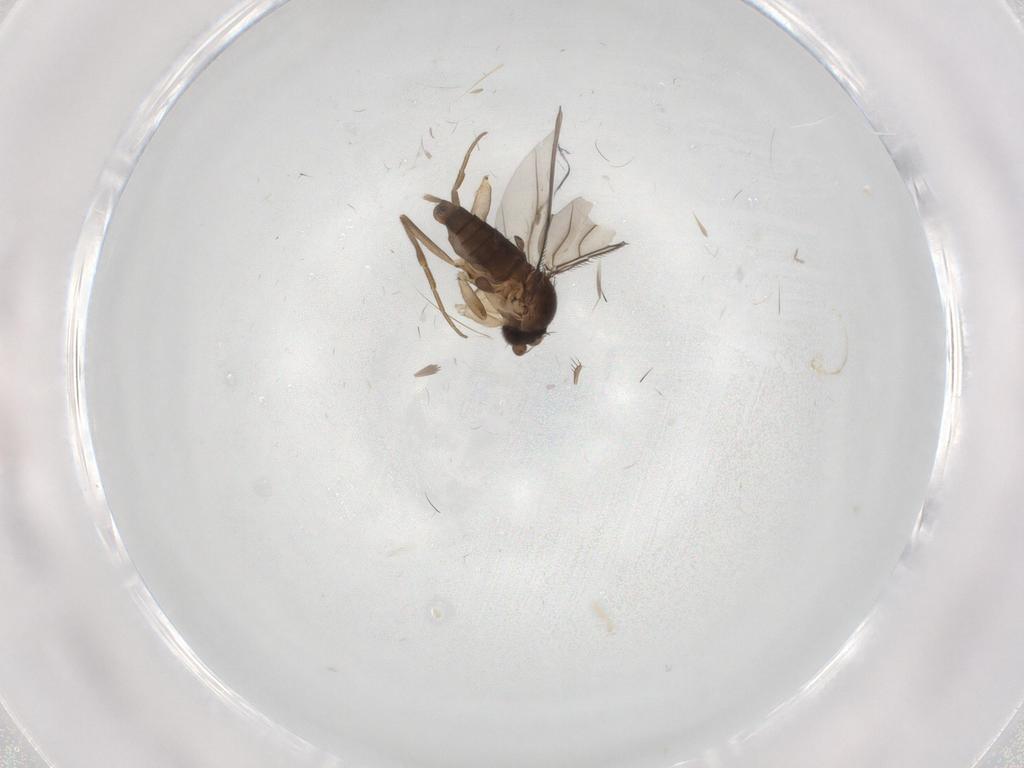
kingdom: Animalia
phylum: Arthropoda
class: Insecta
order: Diptera
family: Phoridae
